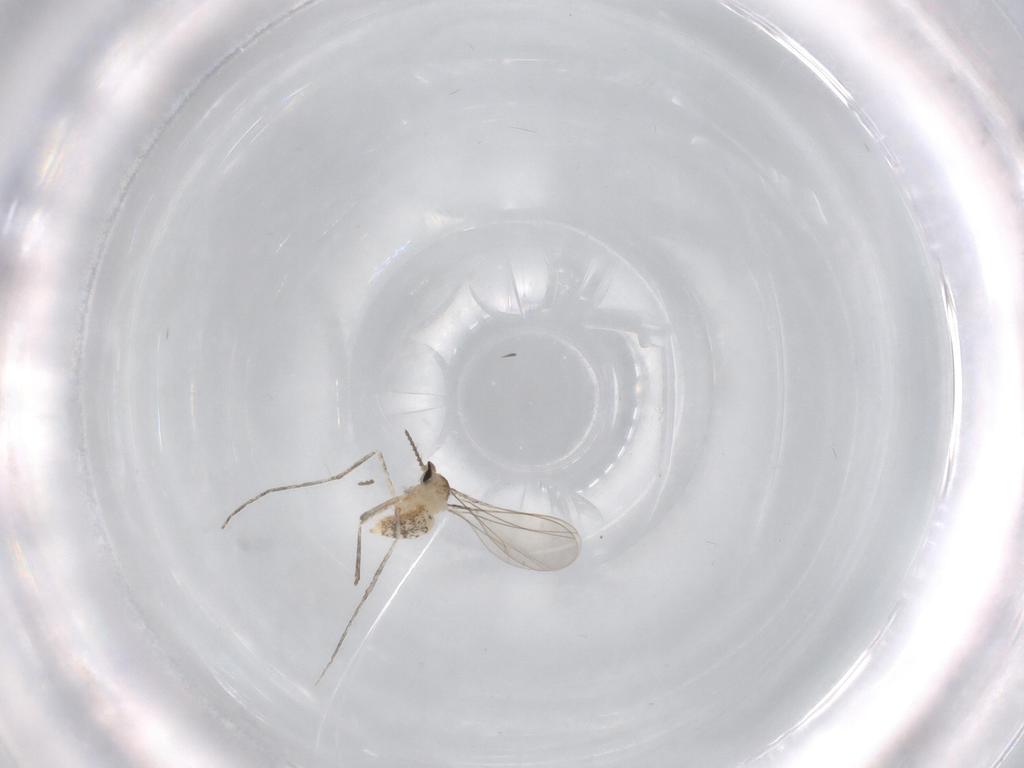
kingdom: Animalia
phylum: Arthropoda
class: Insecta
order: Diptera
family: Cecidomyiidae
